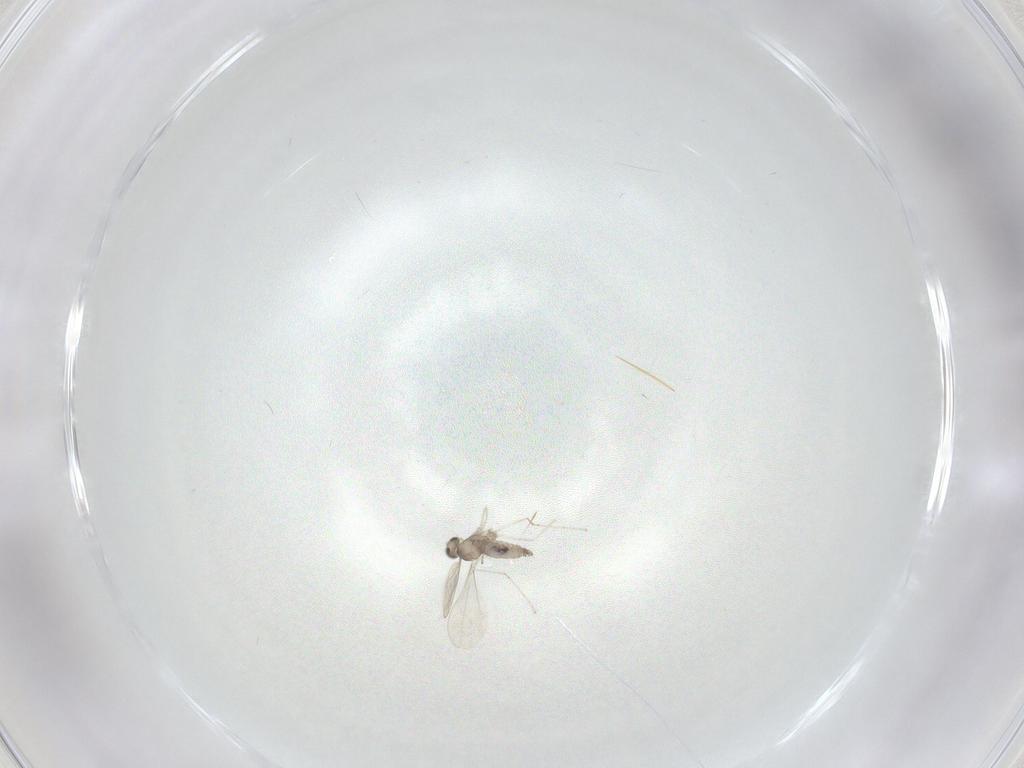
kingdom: Animalia
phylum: Arthropoda
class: Insecta
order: Diptera
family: Cecidomyiidae
